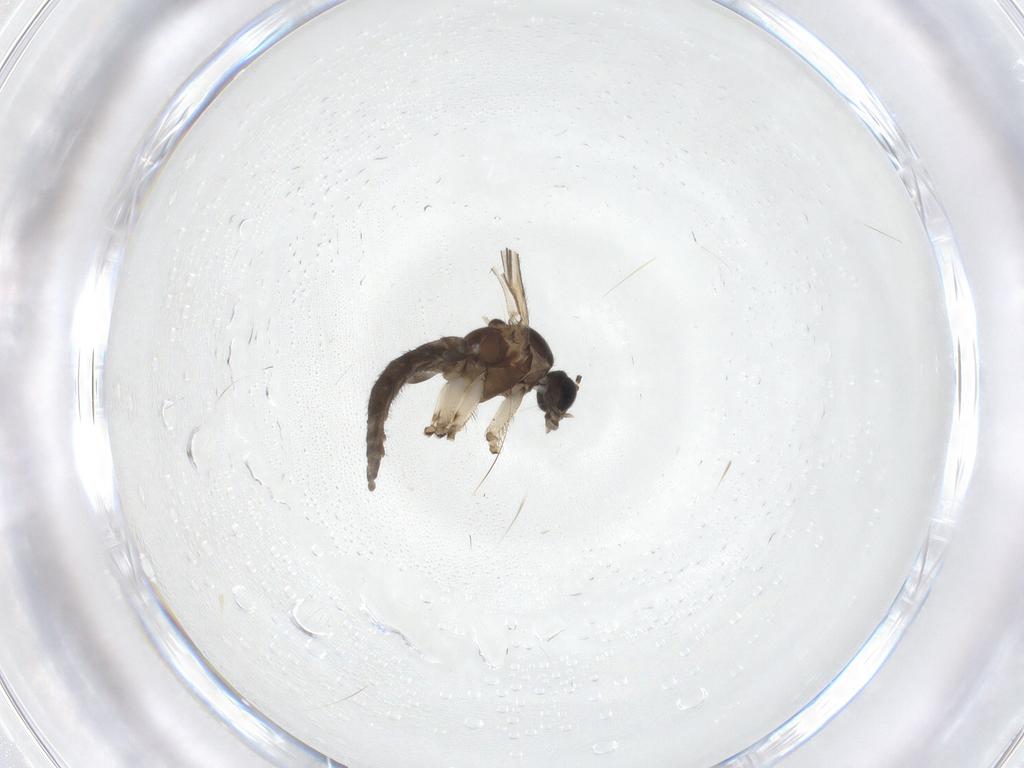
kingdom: Animalia
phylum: Arthropoda
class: Insecta
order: Diptera
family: Sciaridae
